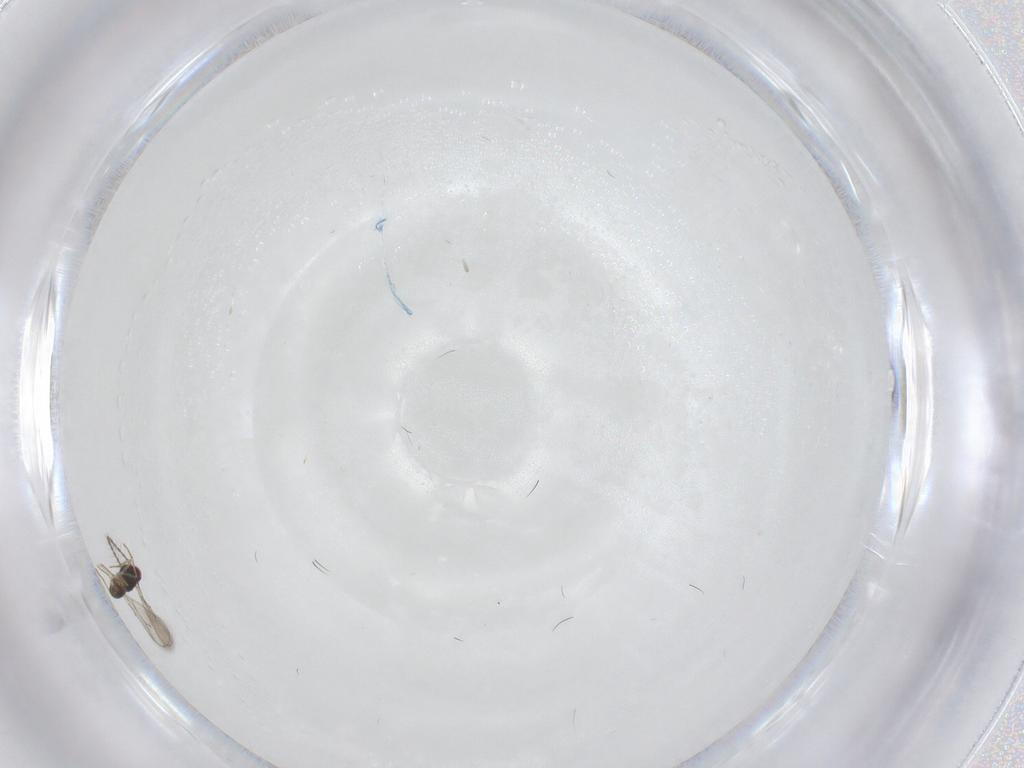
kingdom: Animalia
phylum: Arthropoda
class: Insecta
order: Hymenoptera
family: Eulophidae
